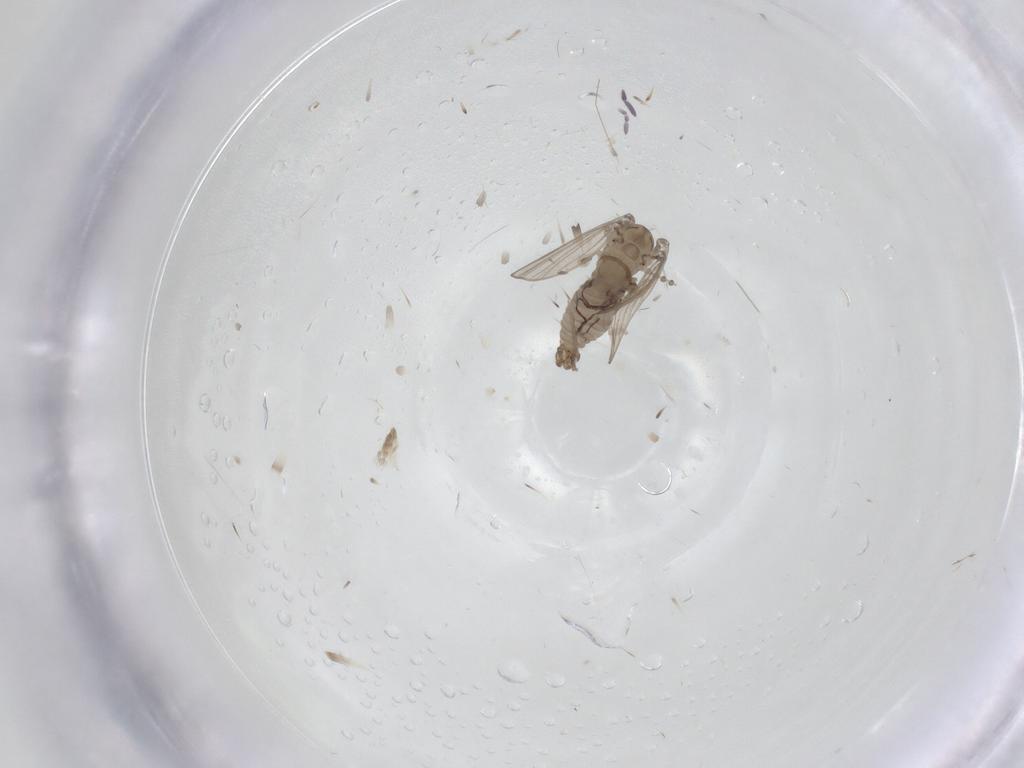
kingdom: Animalia
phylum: Arthropoda
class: Insecta
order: Diptera
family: Psychodidae
